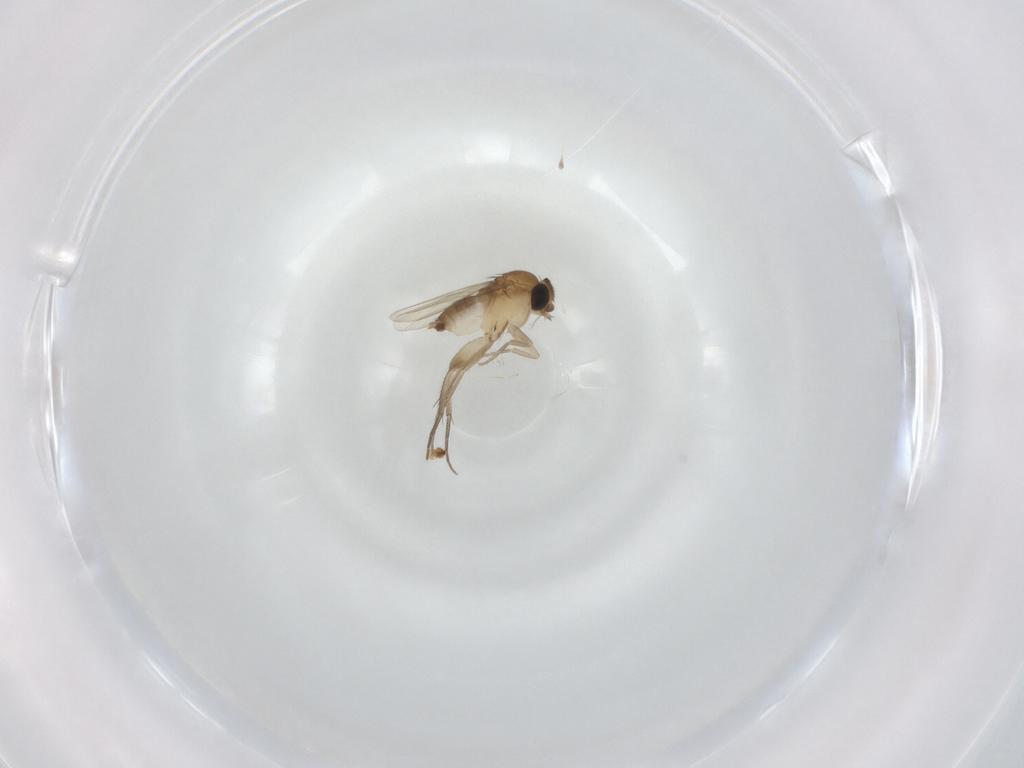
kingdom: Animalia
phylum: Arthropoda
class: Insecta
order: Diptera
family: Phoridae
